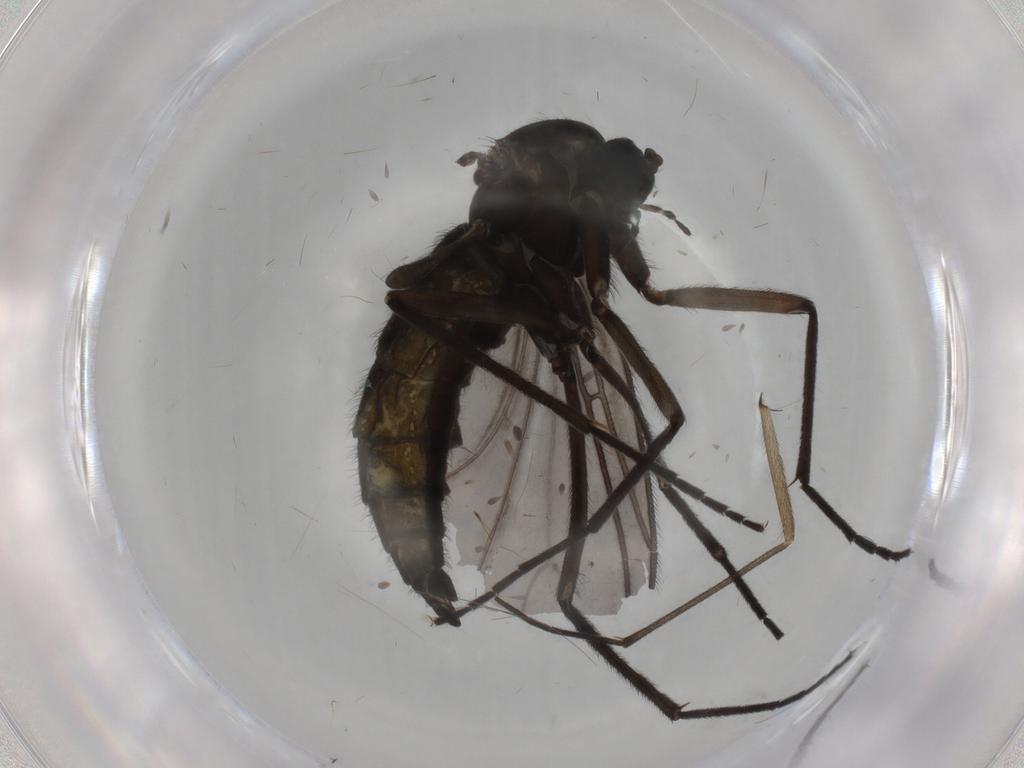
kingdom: Animalia
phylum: Arthropoda
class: Insecta
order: Diptera
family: Sciaridae
